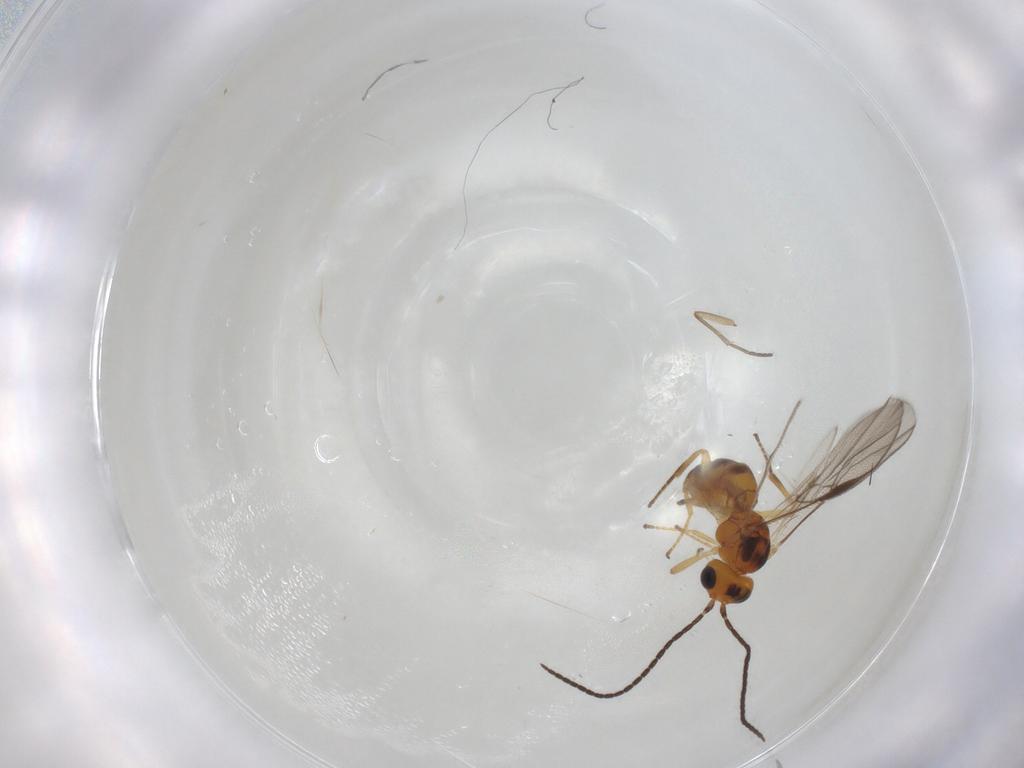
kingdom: Animalia
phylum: Arthropoda
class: Insecta
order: Hymenoptera
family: Braconidae
